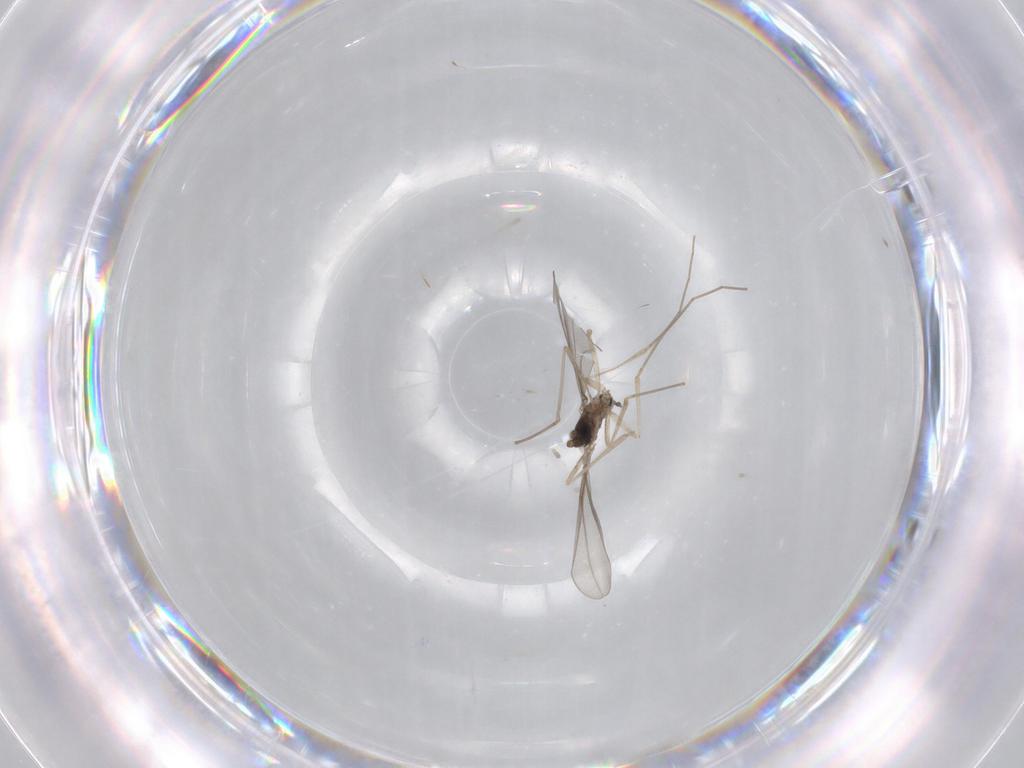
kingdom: Animalia
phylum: Arthropoda
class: Insecta
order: Diptera
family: Cecidomyiidae
